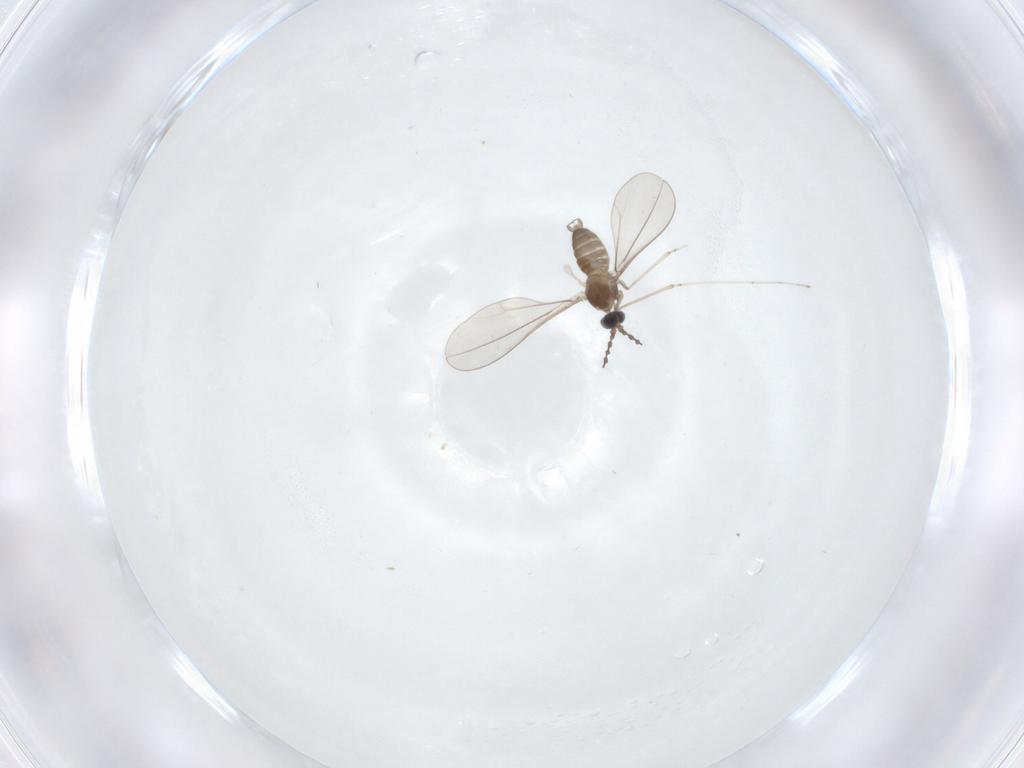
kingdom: Animalia
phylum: Arthropoda
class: Insecta
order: Diptera
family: Cecidomyiidae
